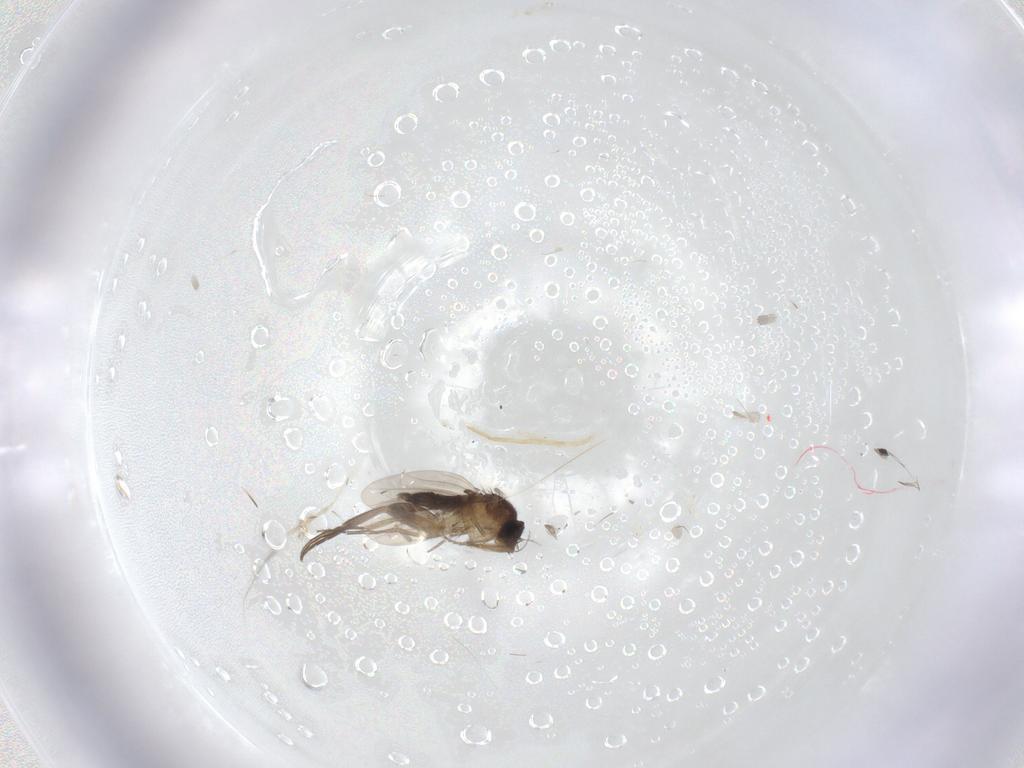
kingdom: Animalia
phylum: Arthropoda
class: Insecta
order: Diptera
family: Phoridae
